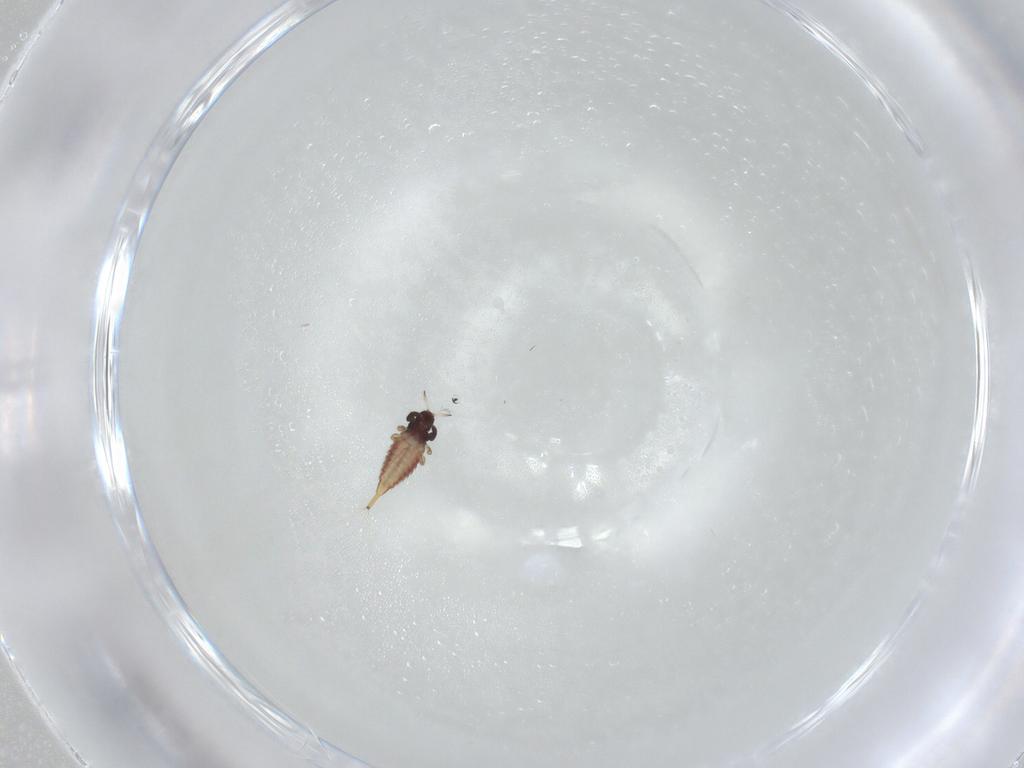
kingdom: Animalia
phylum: Arthropoda
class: Insecta
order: Thysanoptera
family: Phlaeothripidae
